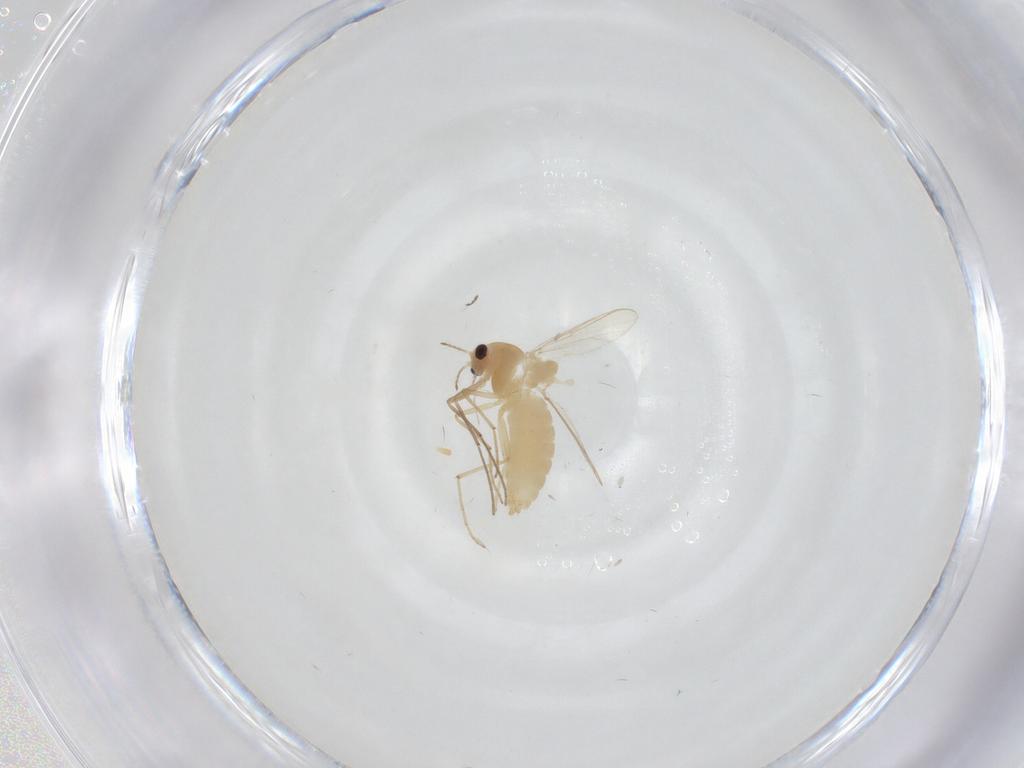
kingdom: Animalia
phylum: Arthropoda
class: Insecta
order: Diptera
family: Chironomidae
